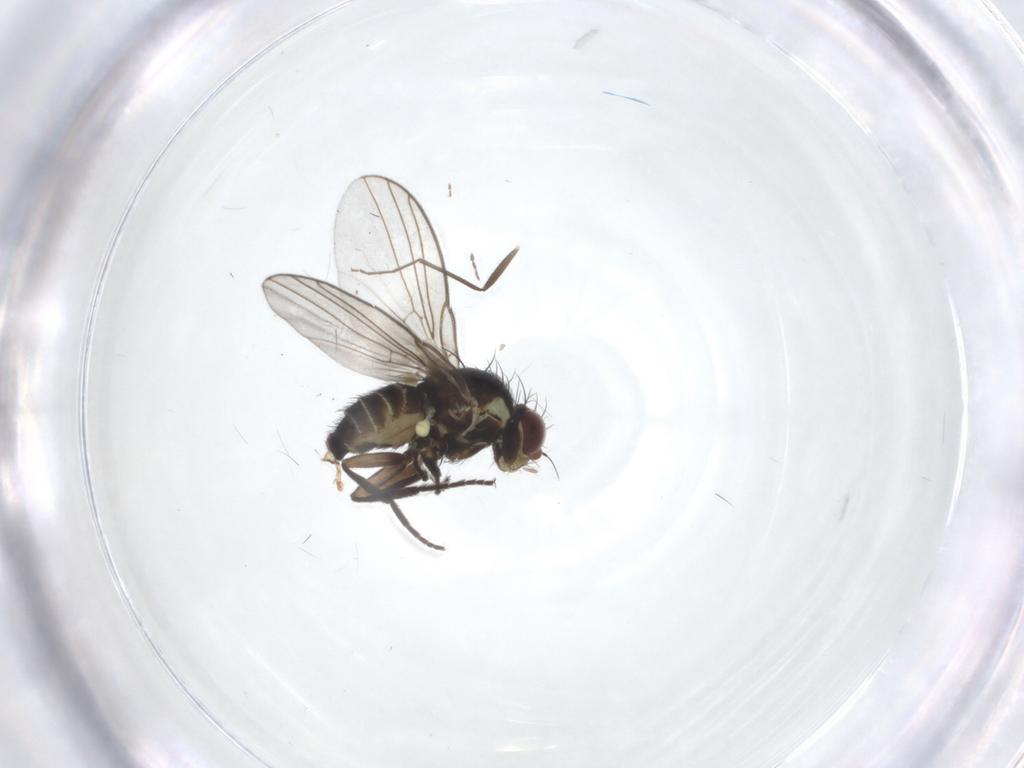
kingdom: Animalia
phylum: Arthropoda
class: Insecta
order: Diptera
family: Agromyzidae
